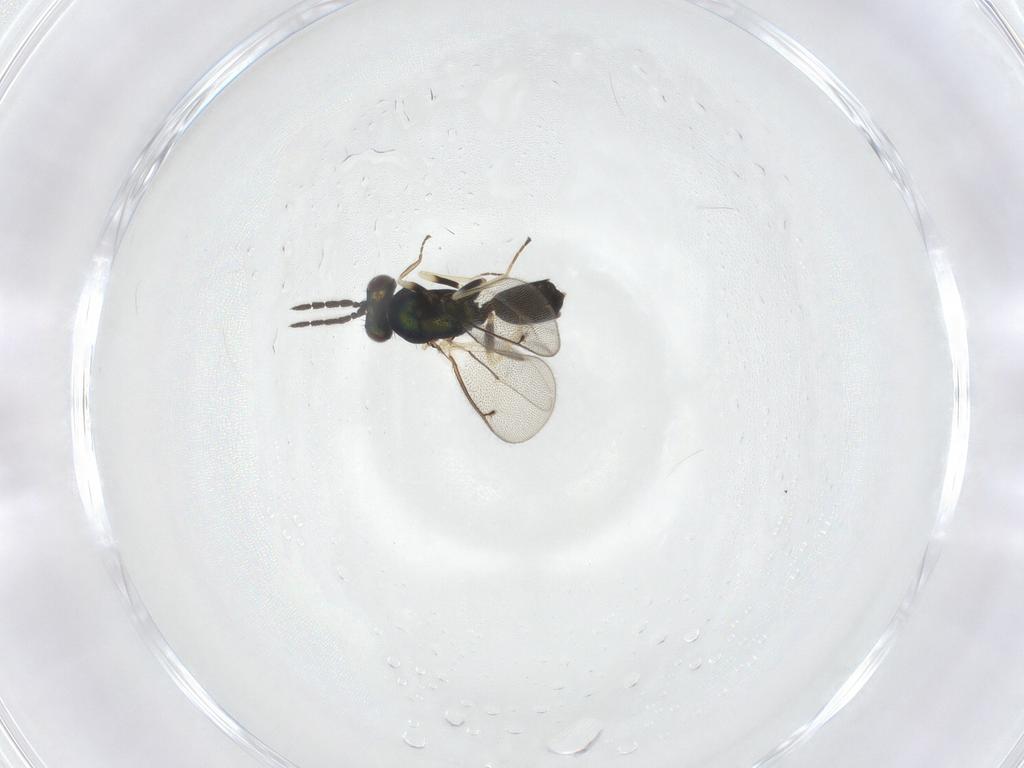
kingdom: Animalia
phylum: Arthropoda
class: Insecta
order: Hymenoptera
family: Eulophidae
